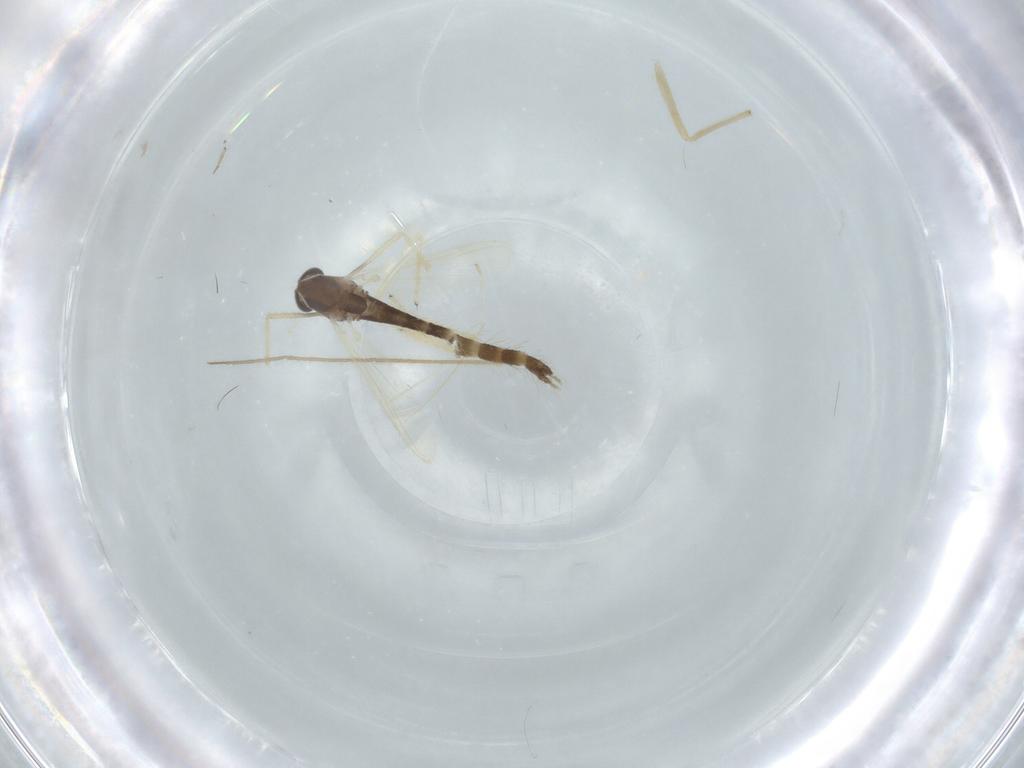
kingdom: Animalia
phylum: Arthropoda
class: Insecta
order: Diptera
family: Chironomidae
